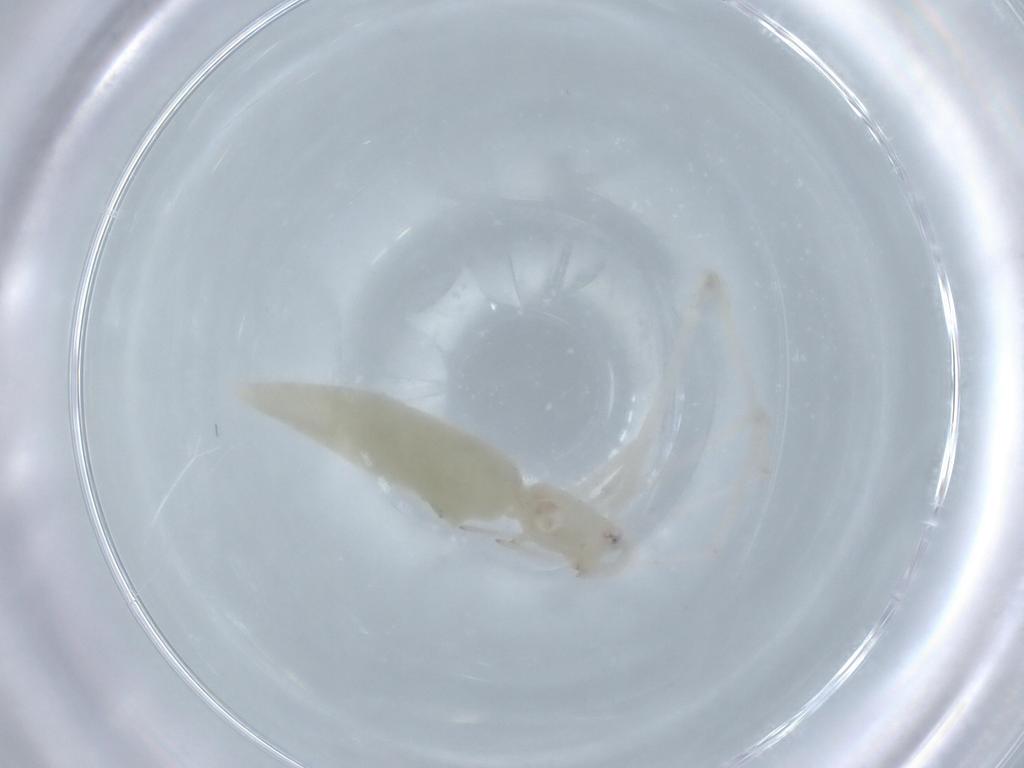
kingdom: Animalia
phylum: Arthropoda
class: Arachnida
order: Araneae
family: Theridiidae
